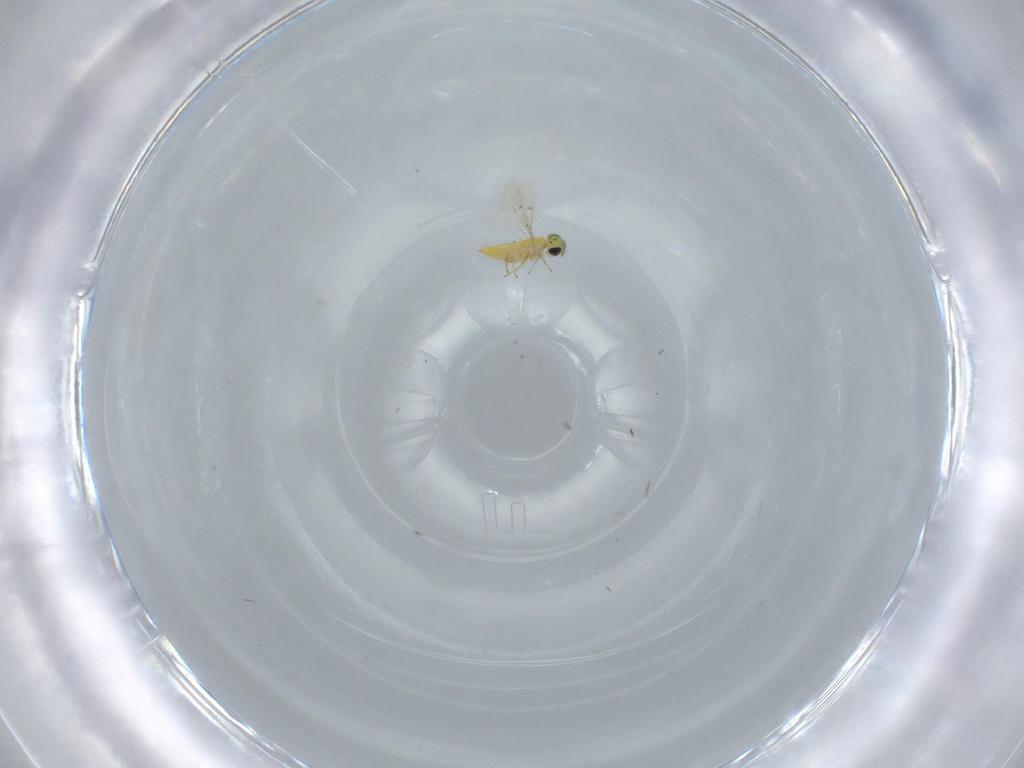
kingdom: Animalia
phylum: Arthropoda
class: Insecta
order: Hymenoptera
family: Trichogrammatidae
